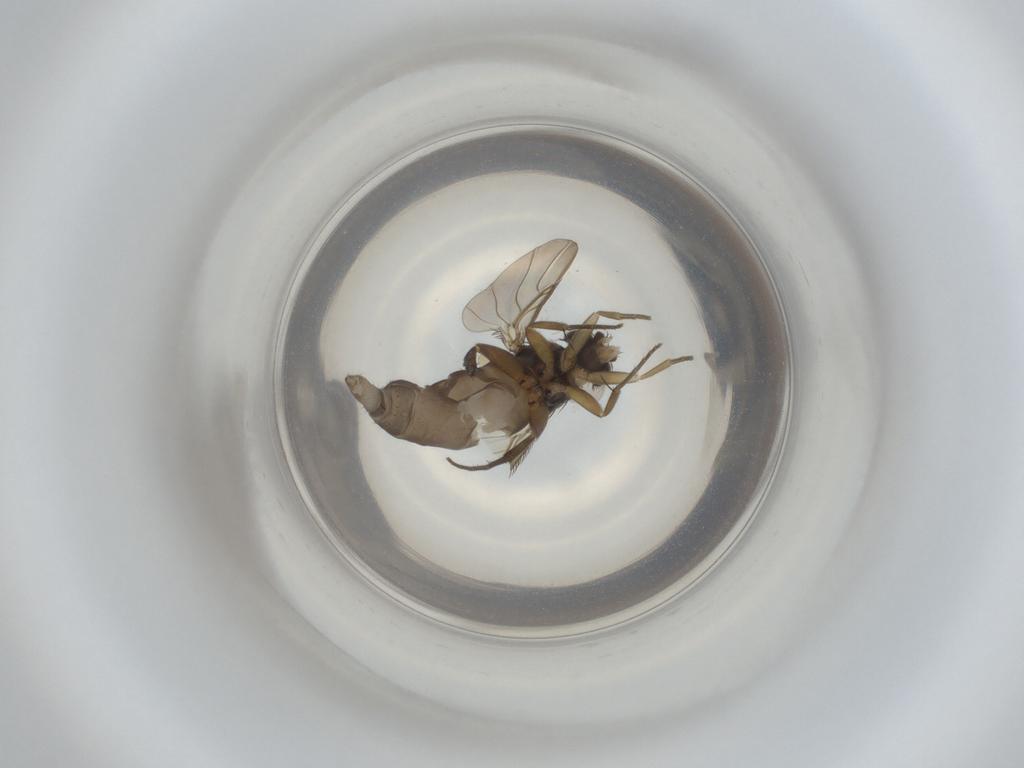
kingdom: Animalia
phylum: Arthropoda
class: Insecta
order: Diptera
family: Phoridae
